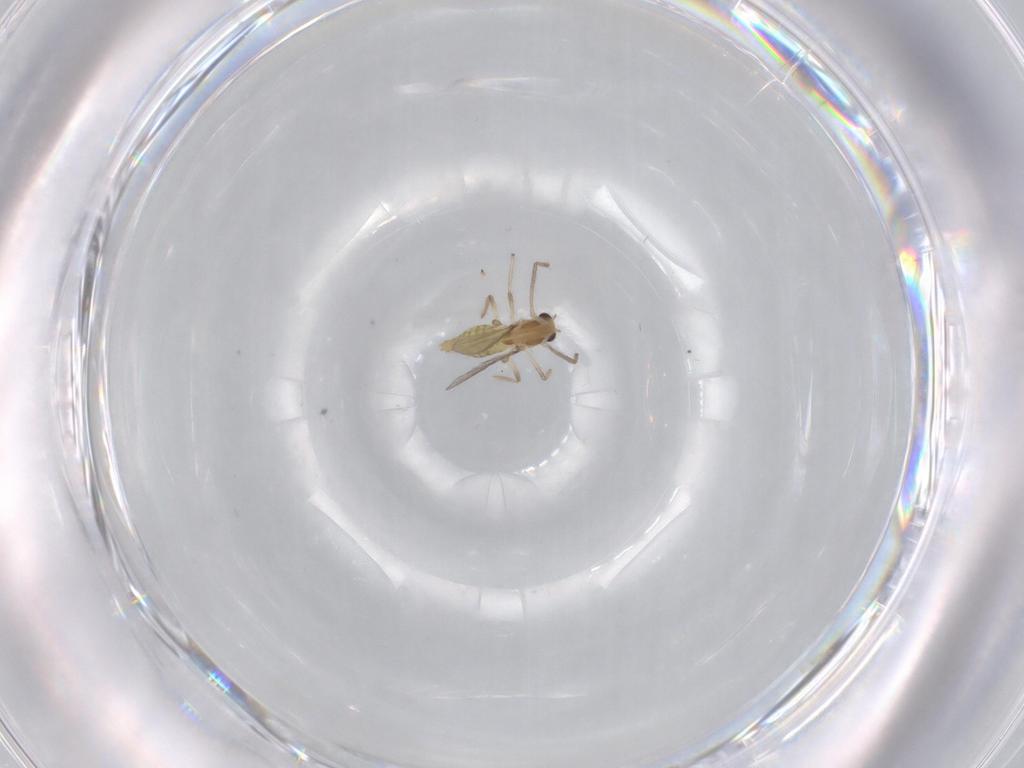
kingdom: Animalia
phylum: Arthropoda
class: Insecta
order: Diptera
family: Chironomidae
